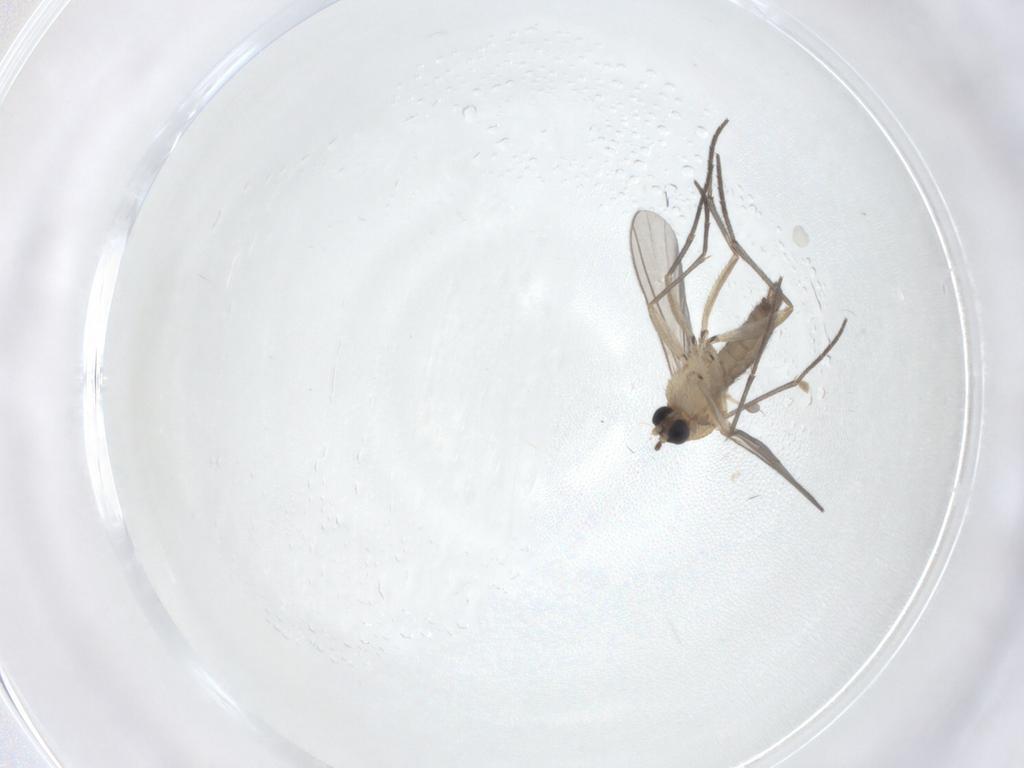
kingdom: Animalia
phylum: Arthropoda
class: Insecta
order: Diptera
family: Sciaridae
